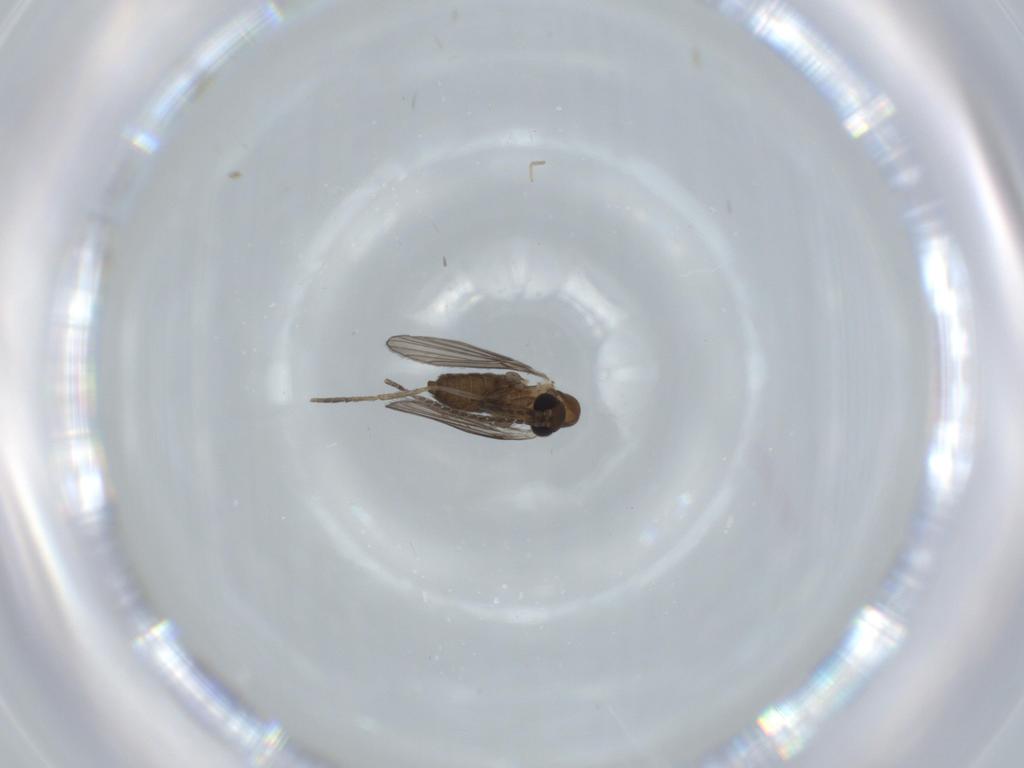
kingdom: Animalia
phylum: Arthropoda
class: Insecta
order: Diptera
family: Psychodidae
